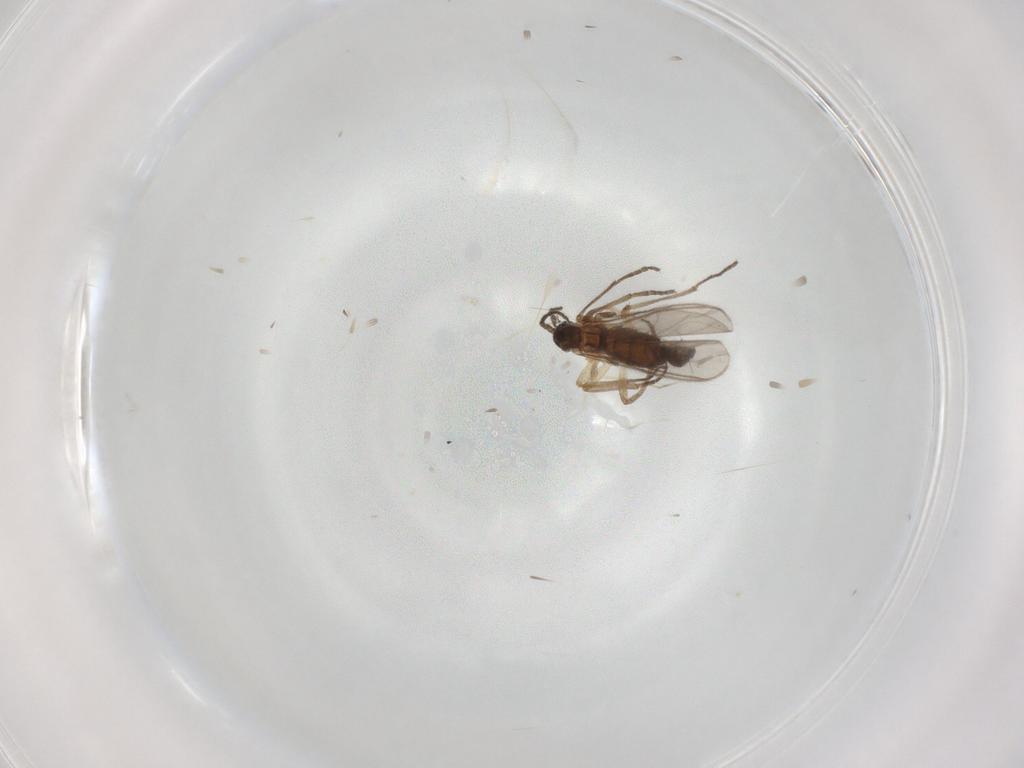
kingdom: Animalia
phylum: Arthropoda
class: Insecta
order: Diptera
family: Sciaridae
